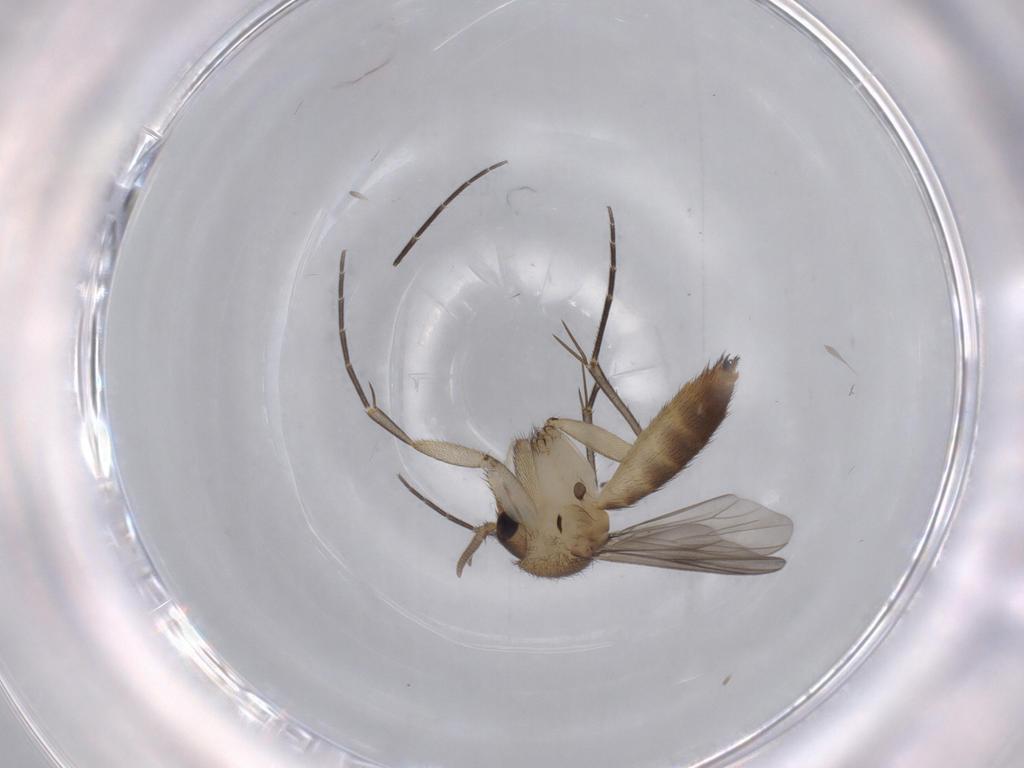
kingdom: Animalia
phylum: Arthropoda
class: Insecta
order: Diptera
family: Mycetophilidae
